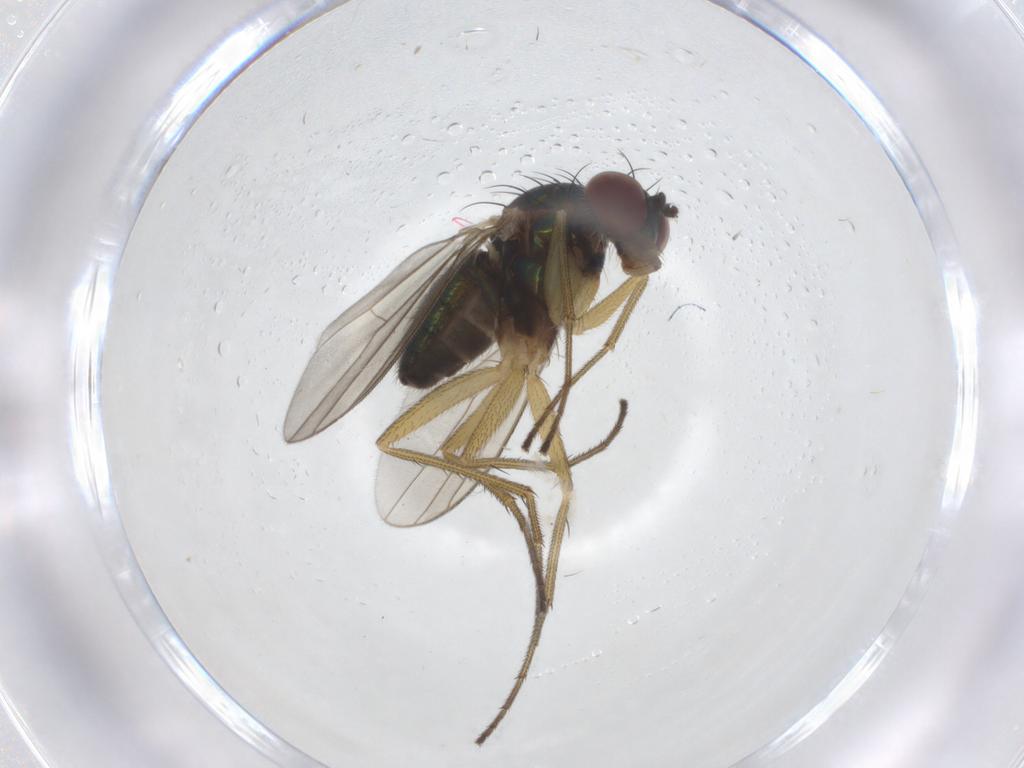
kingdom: Animalia
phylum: Arthropoda
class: Insecta
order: Diptera
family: Dolichopodidae
